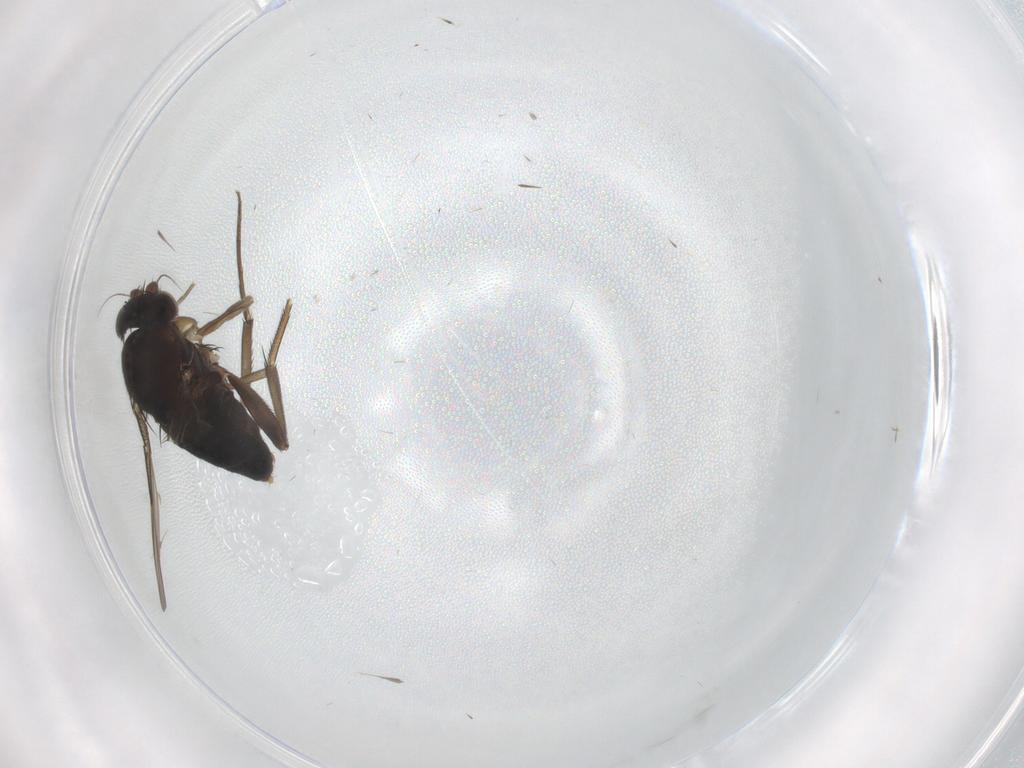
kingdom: Animalia
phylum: Arthropoda
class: Insecta
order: Diptera
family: Phoridae
